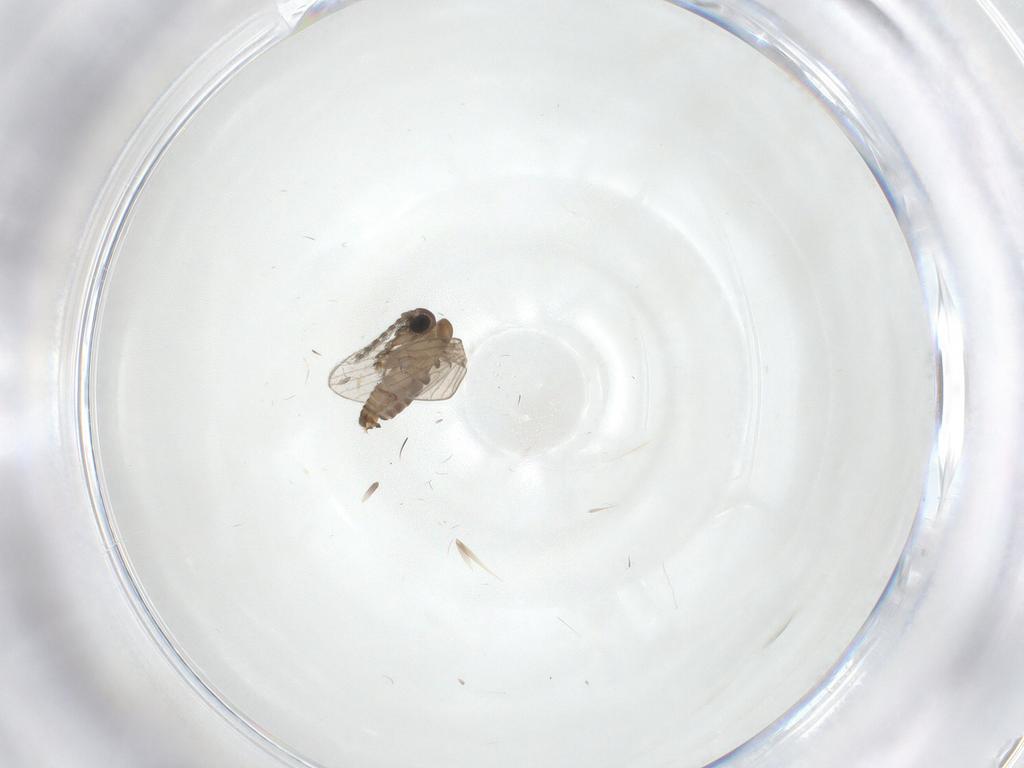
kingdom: Animalia
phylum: Arthropoda
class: Insecta
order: Diptera
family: Psychodidae
